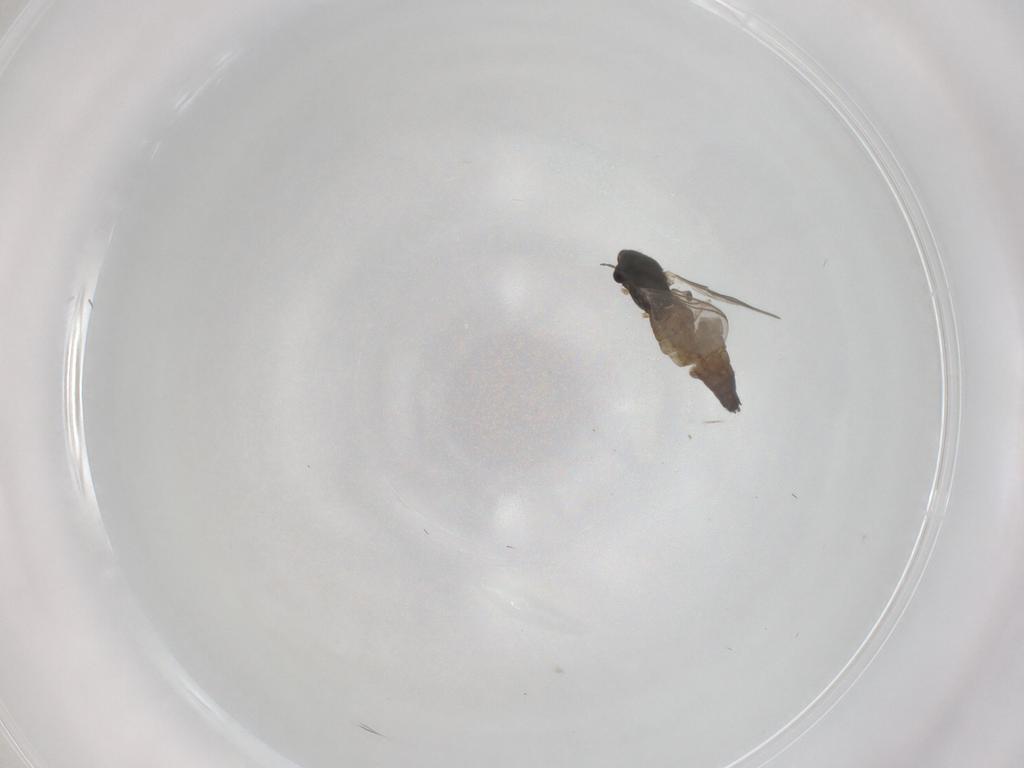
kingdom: Animalia
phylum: Arthropoda
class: Insecta
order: Diptera
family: Chironomidae
